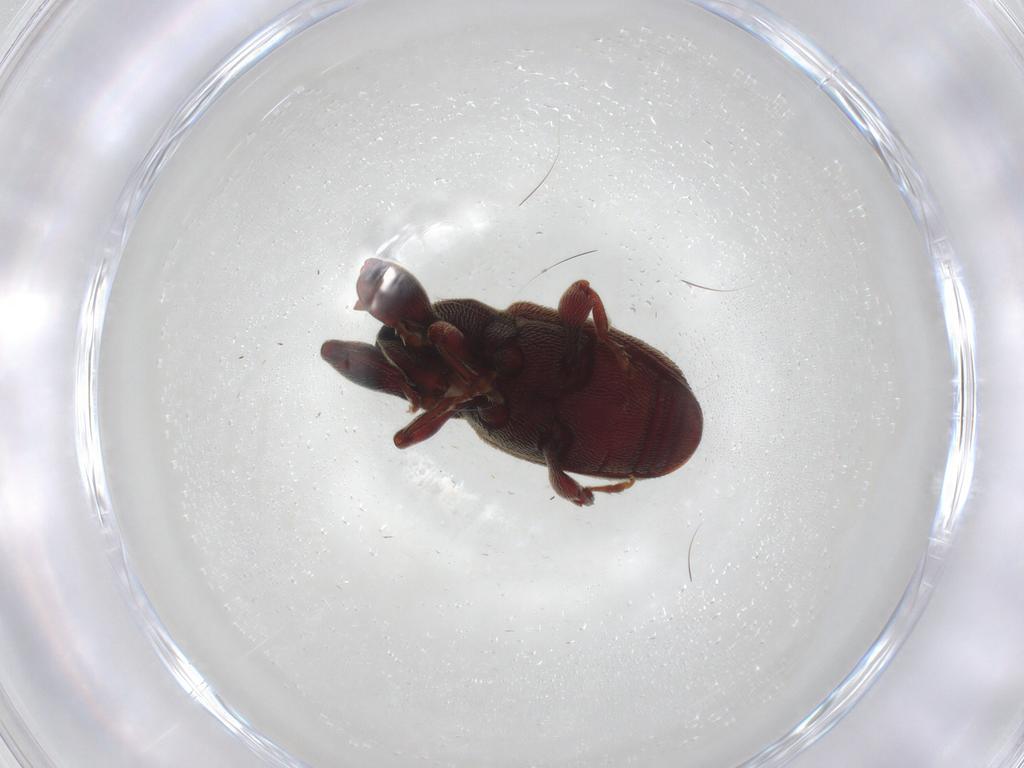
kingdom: Animalia
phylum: Arthropoda
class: Insecta
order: Coleoptera
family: Curculionidae
